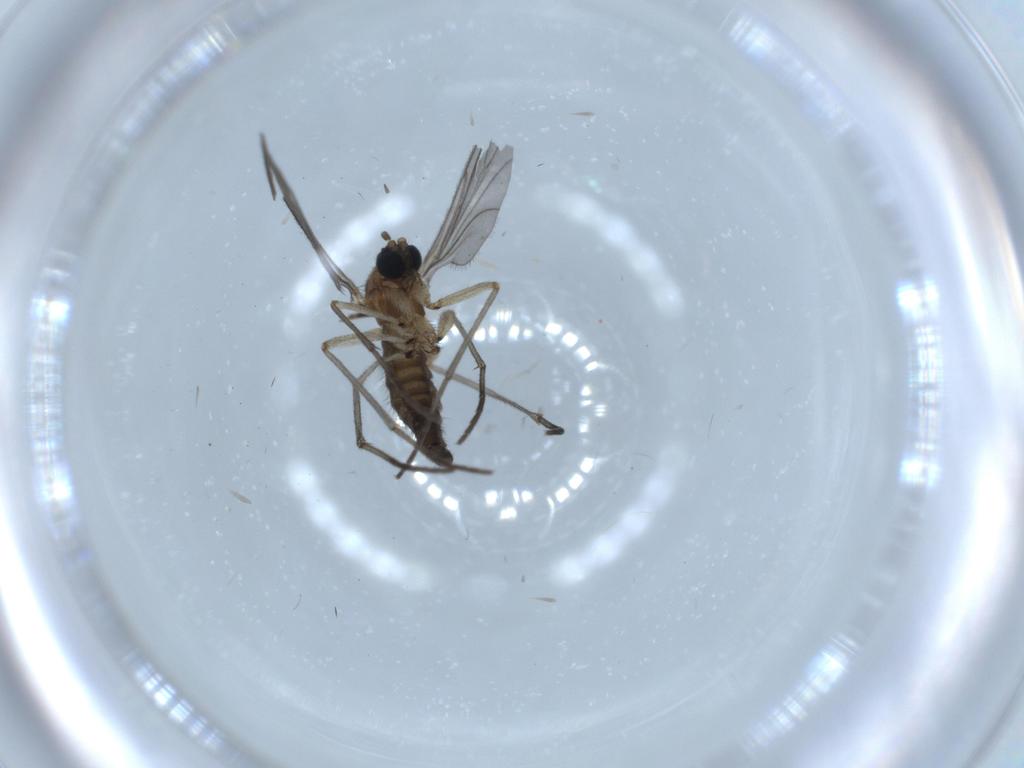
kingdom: Animalia
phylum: Arthropoda
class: Insecta
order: Diptera
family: Sciaridae
